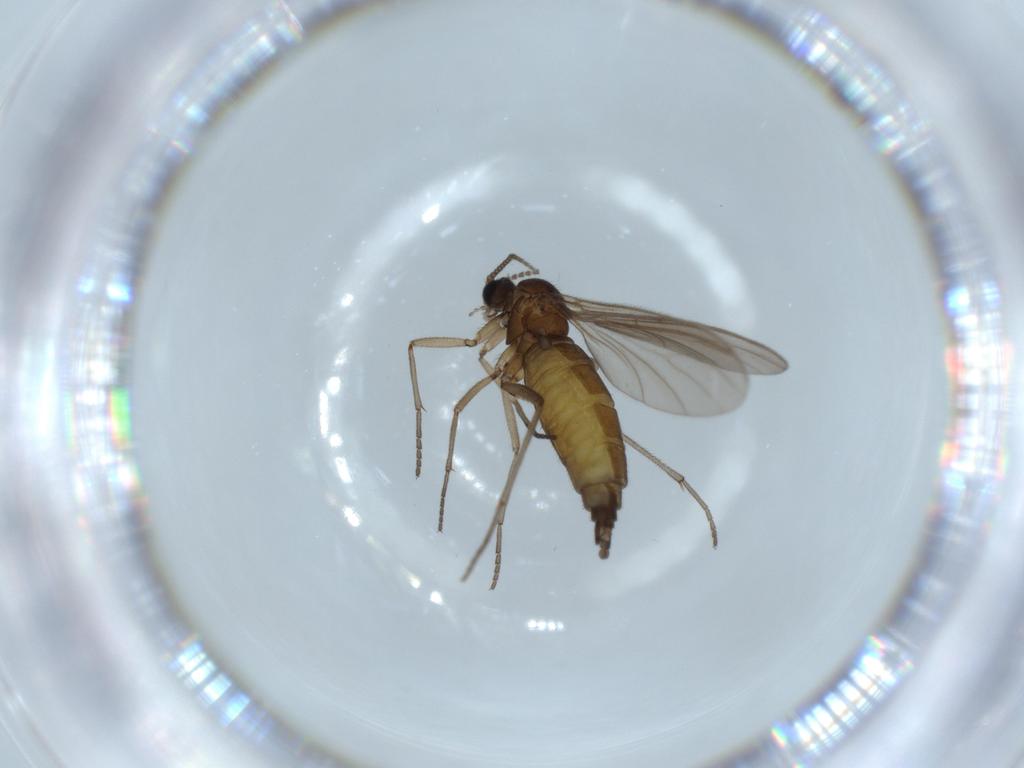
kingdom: Animalia
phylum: Arthropoda
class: Insecta
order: Diptera
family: Sciaridae
